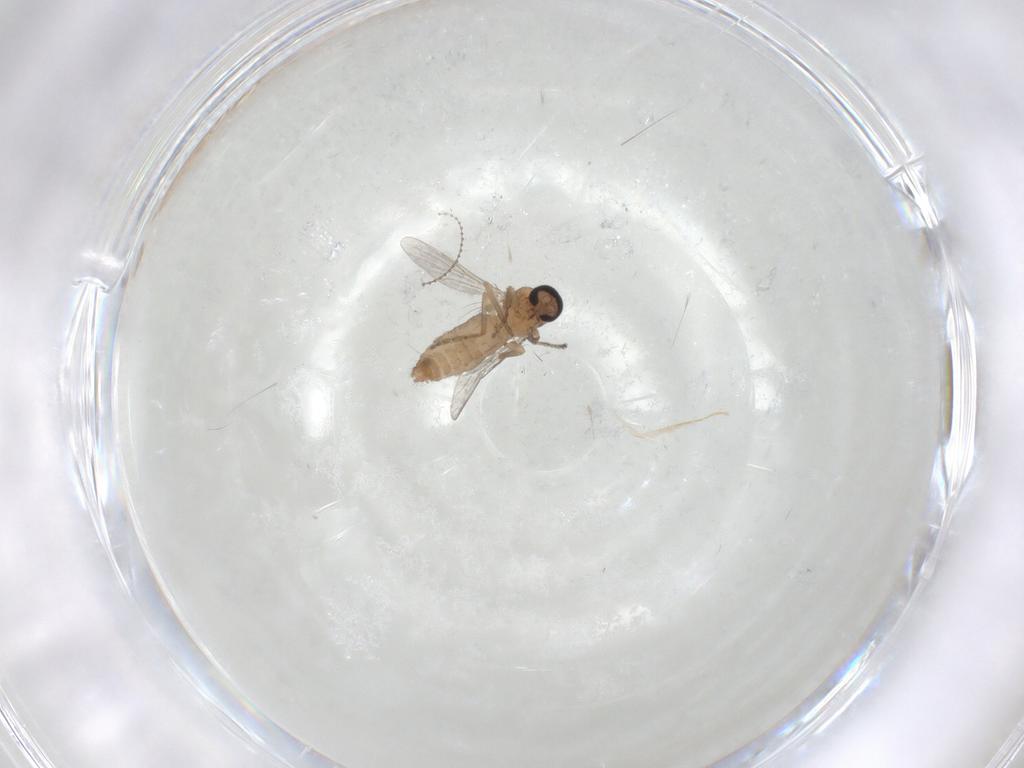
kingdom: Animalia
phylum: Arthropoda
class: Insecta
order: Diptera
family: Ceratopogonidae
